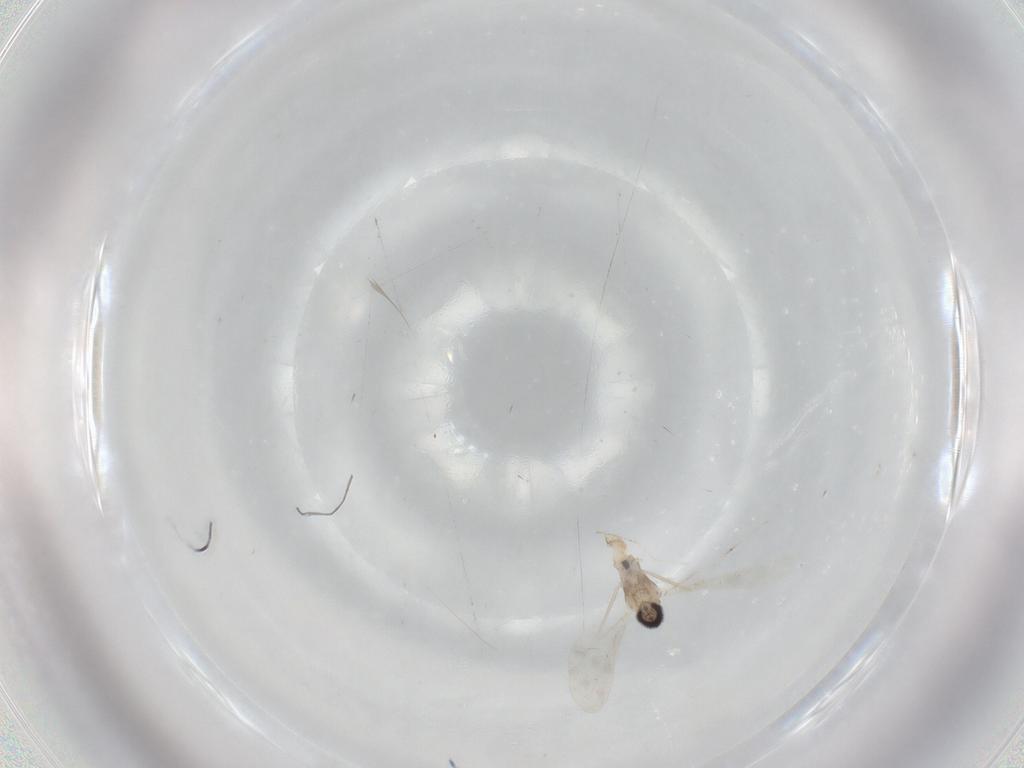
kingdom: Animalia
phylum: Arthropoda
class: Insecta
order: Diptera
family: Cecidomyiidae
